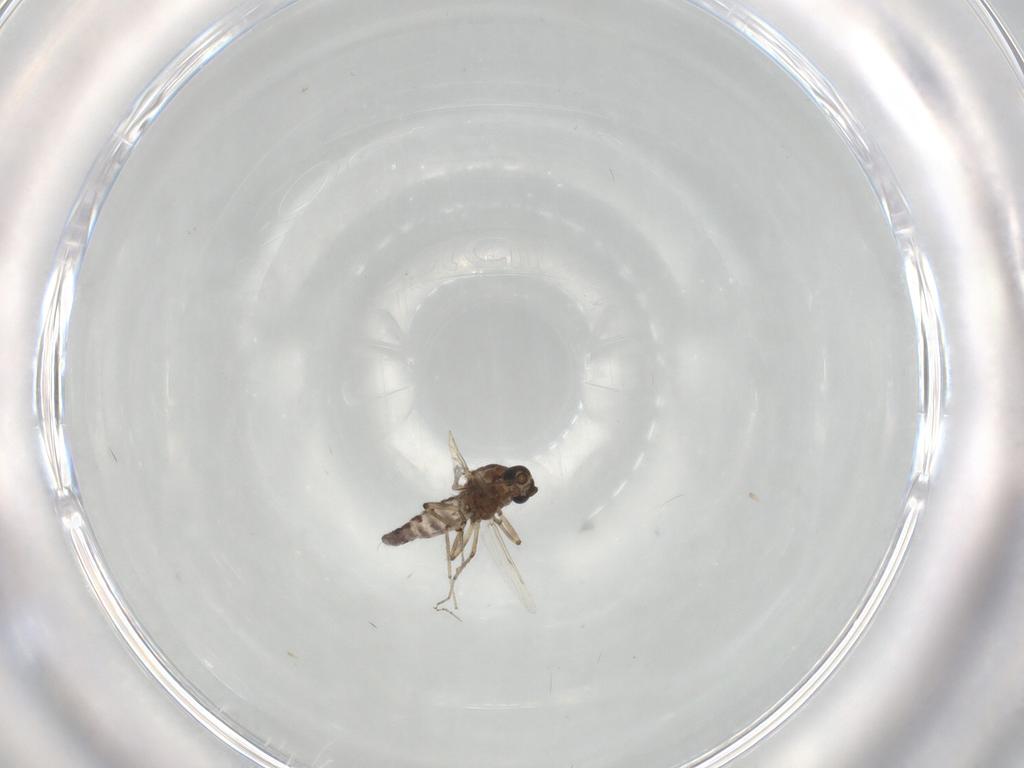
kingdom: Animalia
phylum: Arthropoda
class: Insecta
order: Diptera
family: Ceratopogonidae
